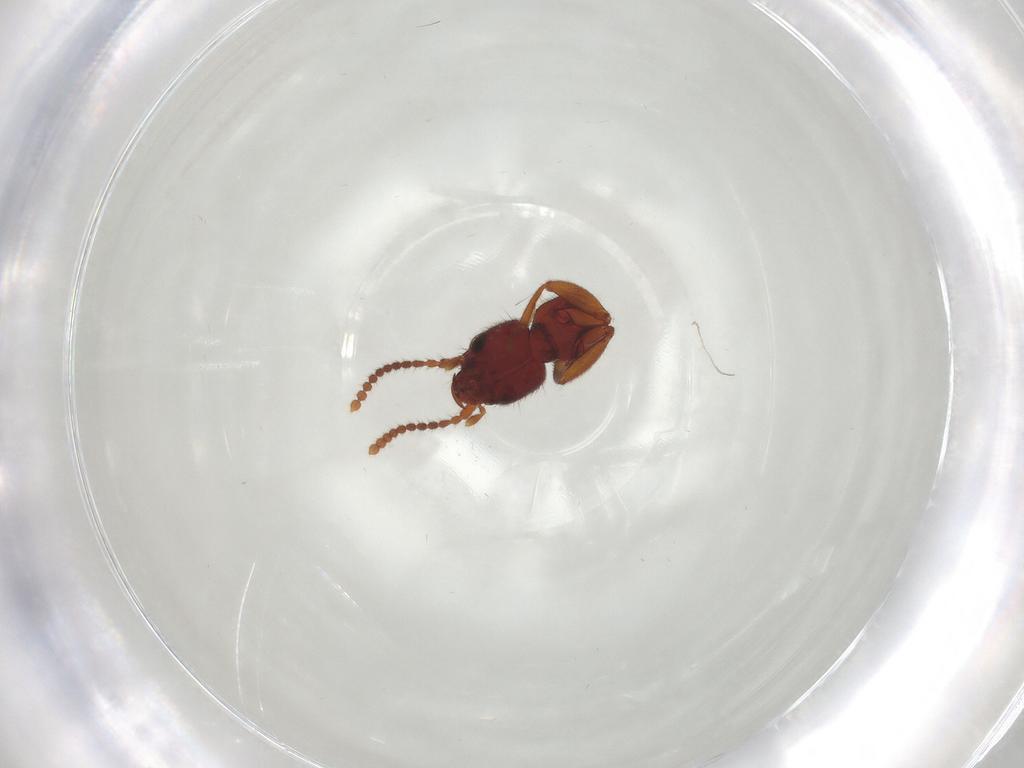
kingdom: Animalia
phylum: Arthropoda
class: Insecta
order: Coleoptera
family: Staphylinidae
